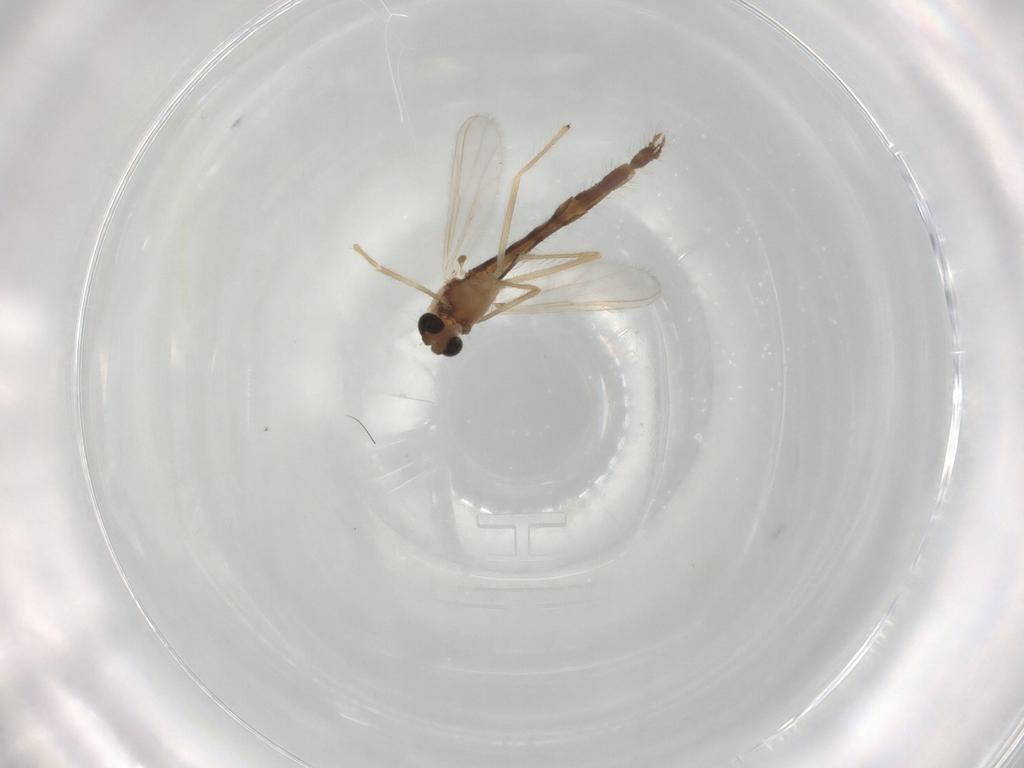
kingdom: Animalia
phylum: Arthropoda
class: Insecta
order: Diptera
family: Chironomidae
